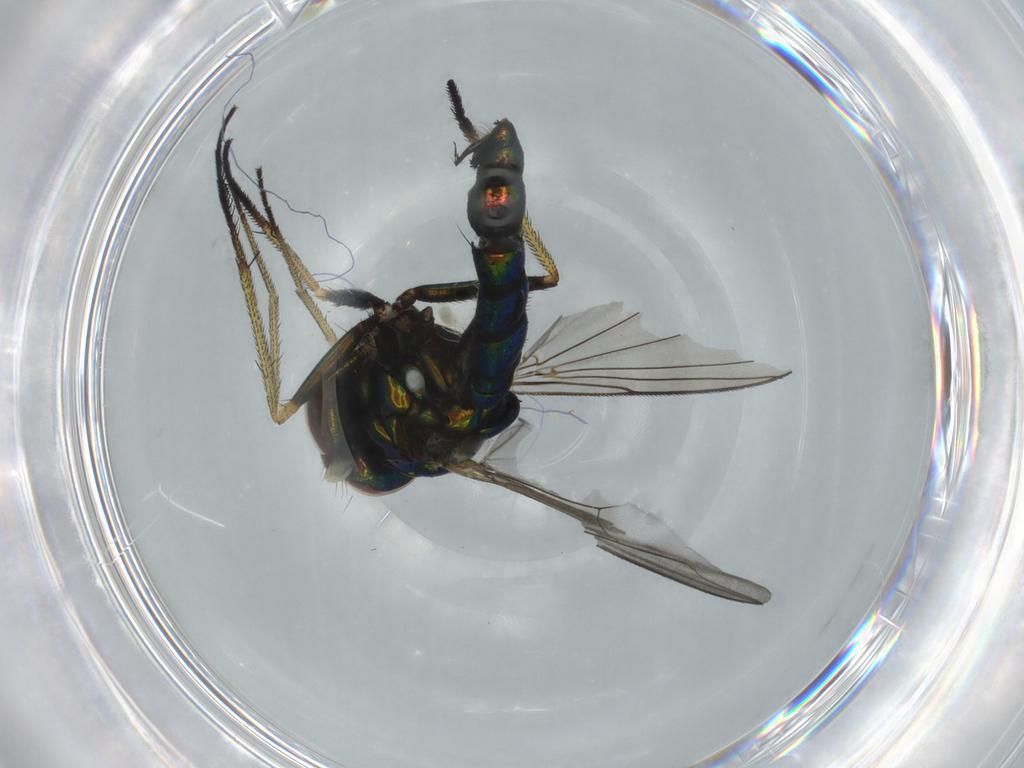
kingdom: Animalia
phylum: Arthropoda
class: Insecta
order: Diptera
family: Dolichopodidae
